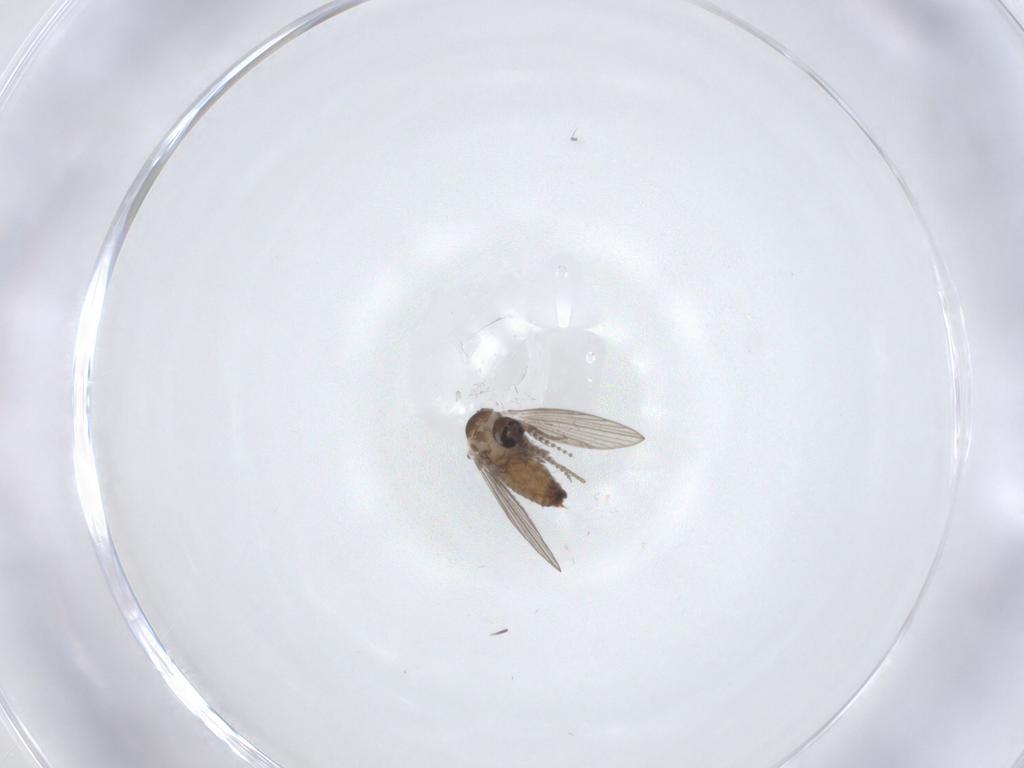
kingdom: Animalia
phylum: Arthropoda
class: Insecta
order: Diptera
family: Psychodidae
